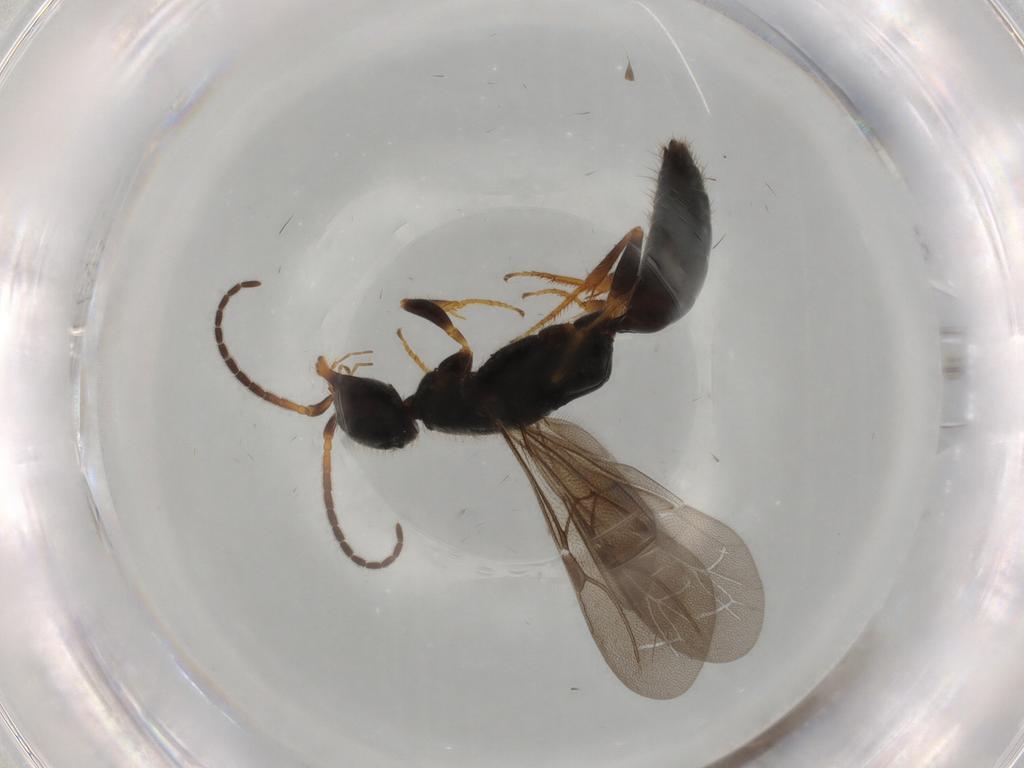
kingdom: Animalia
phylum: Arthropoda
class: Insecta
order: Hymenoptera
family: Bethylidae
